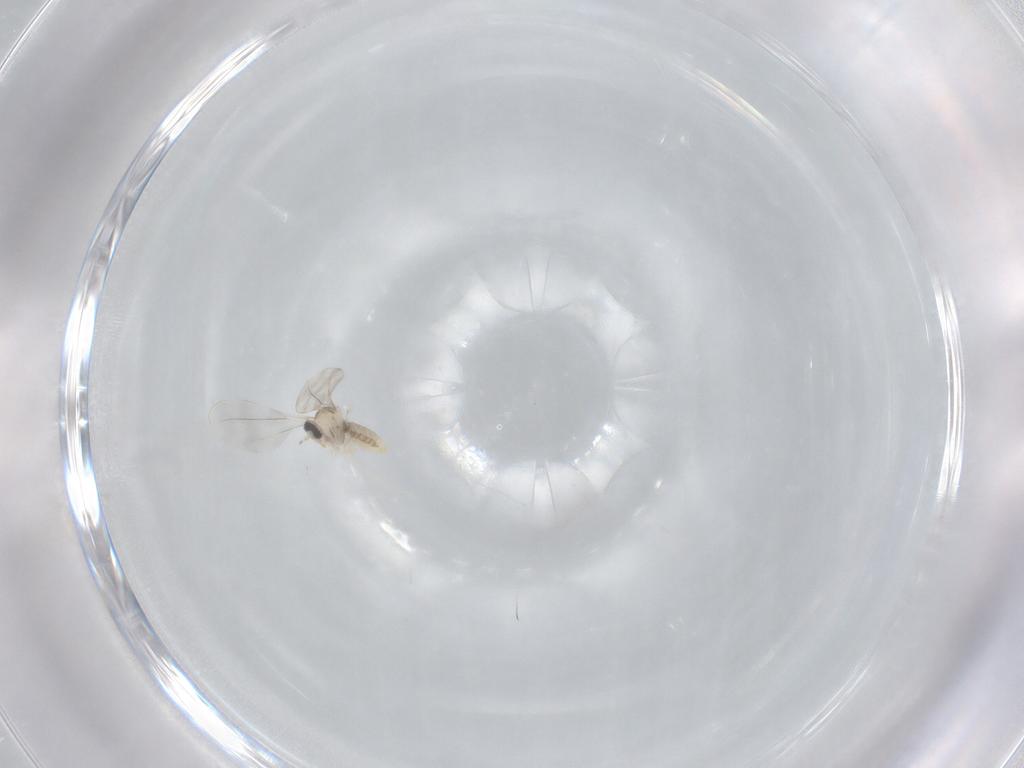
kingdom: Animalia
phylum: Arthropoda
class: Insecta
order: Diptera
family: Cecidomyiidae
